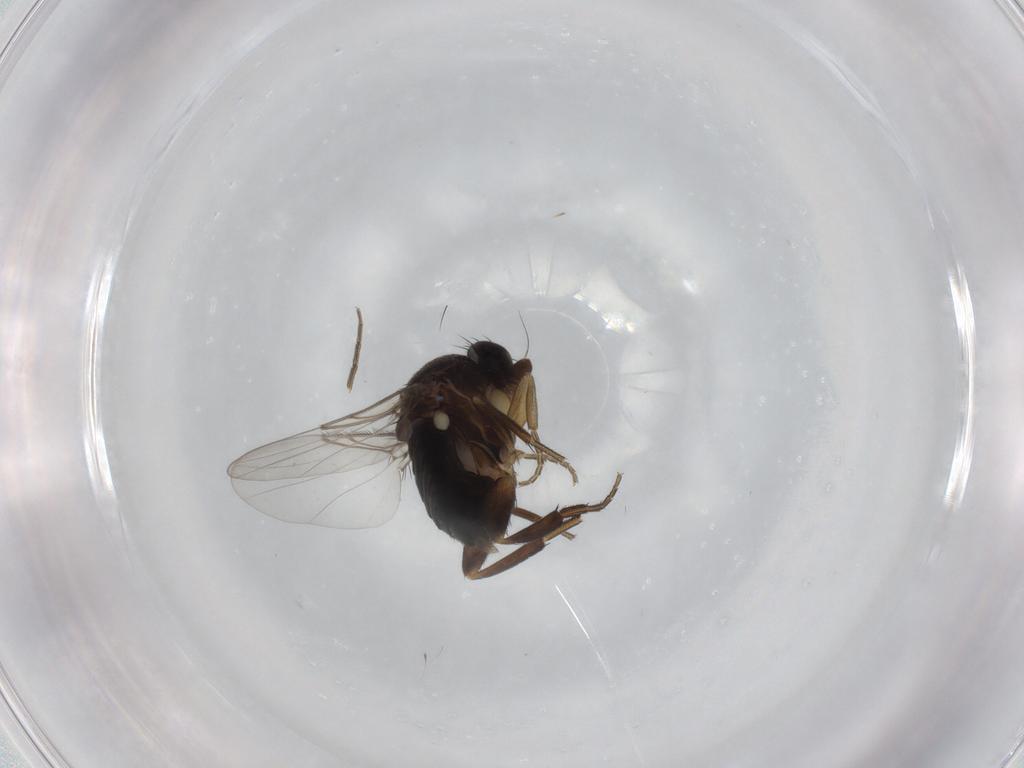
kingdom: Animalia
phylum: Arthropoda
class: Insecta
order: Diptera
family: Phoridae
